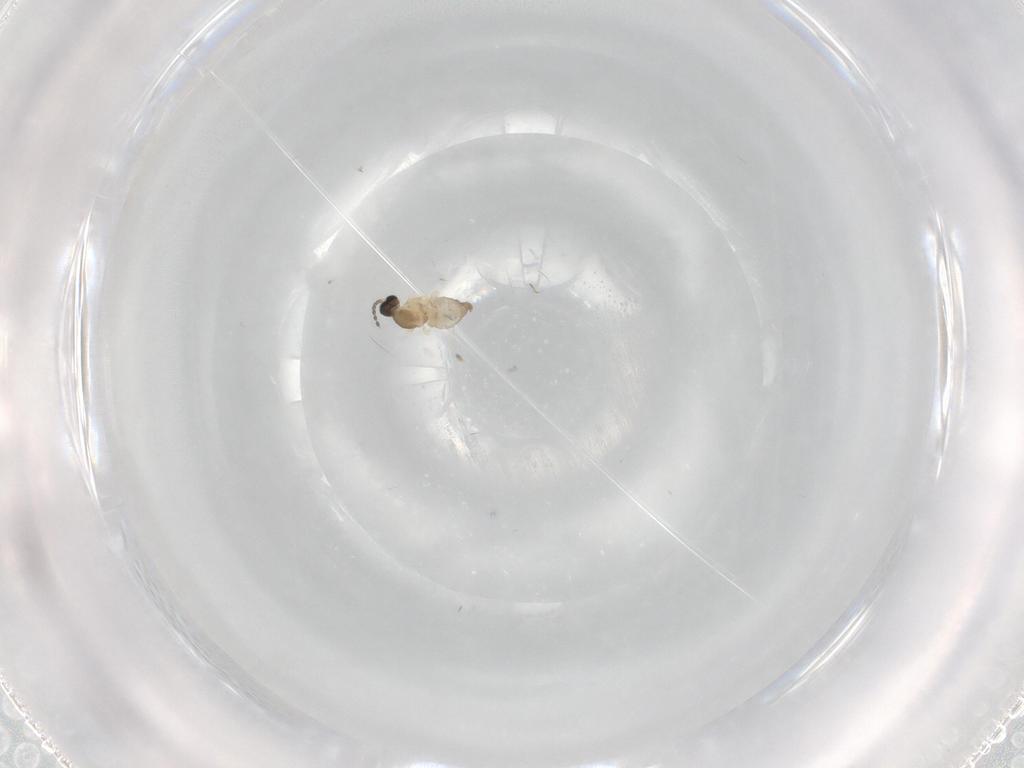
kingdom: Animalia
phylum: Arthropoda
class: Insecta
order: Diptera
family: Cecidomyiidae
